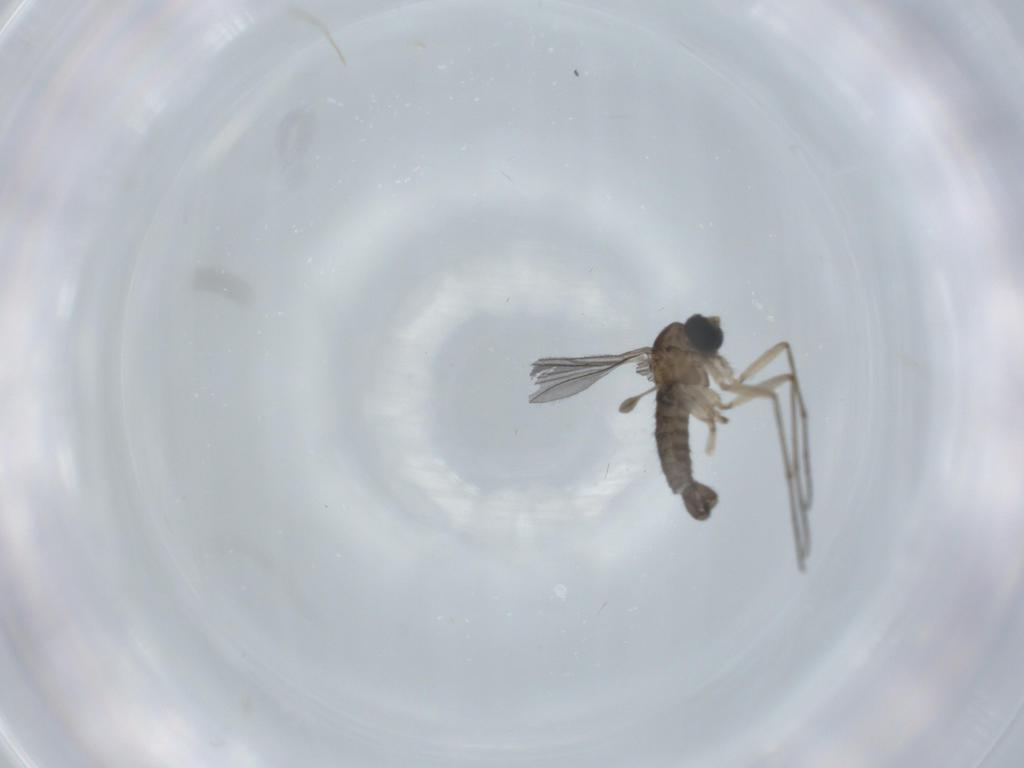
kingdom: Animalia
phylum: Arthropoda
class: Insecta
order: Diptera
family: Sciaridae
